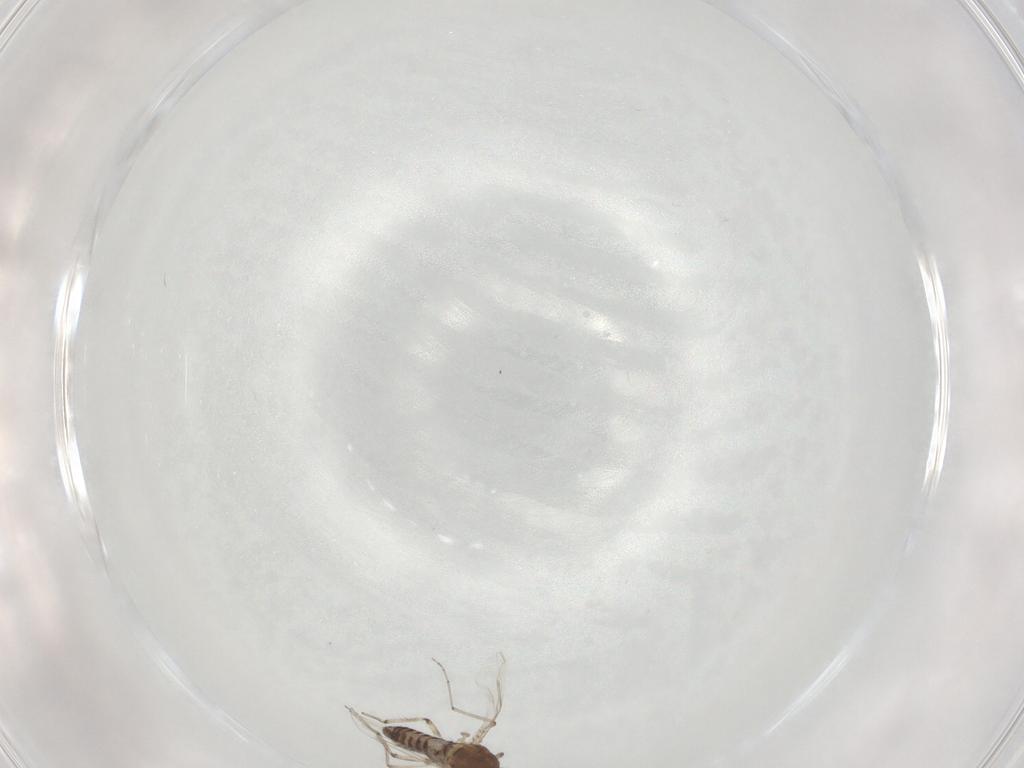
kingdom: Animalia
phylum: Arthropoda
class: Insecta
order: Diptera
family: Ceratopogonidae
